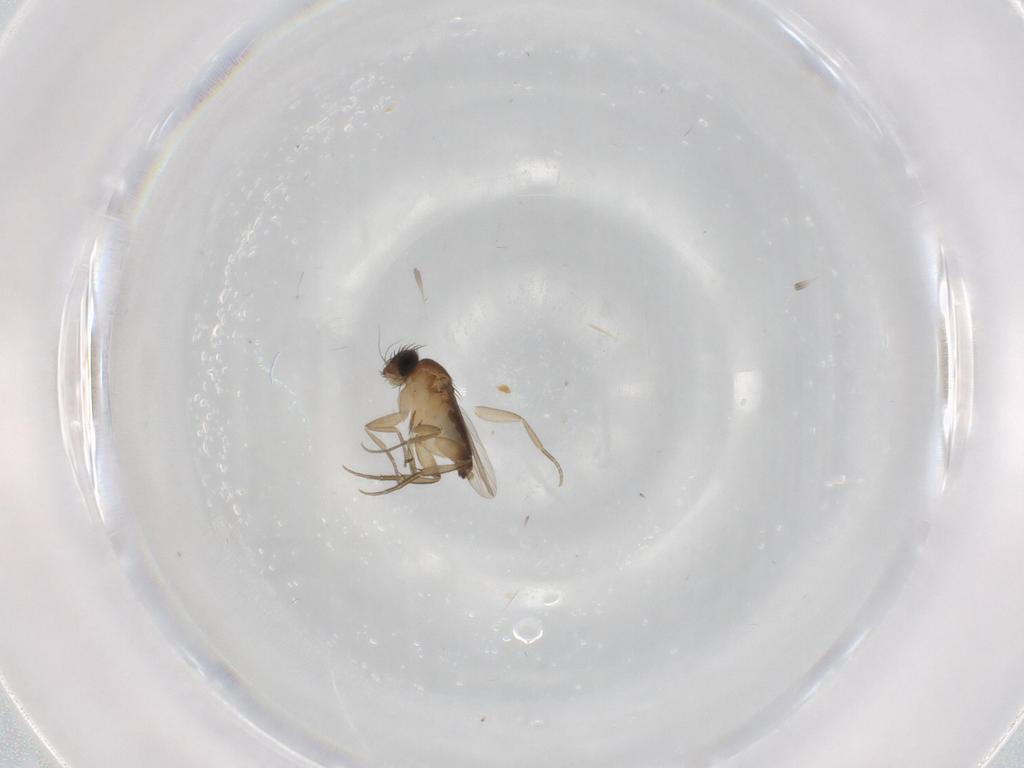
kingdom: Animalia
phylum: Arthropoda
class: Insecta
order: Diptera
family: Phoridae
